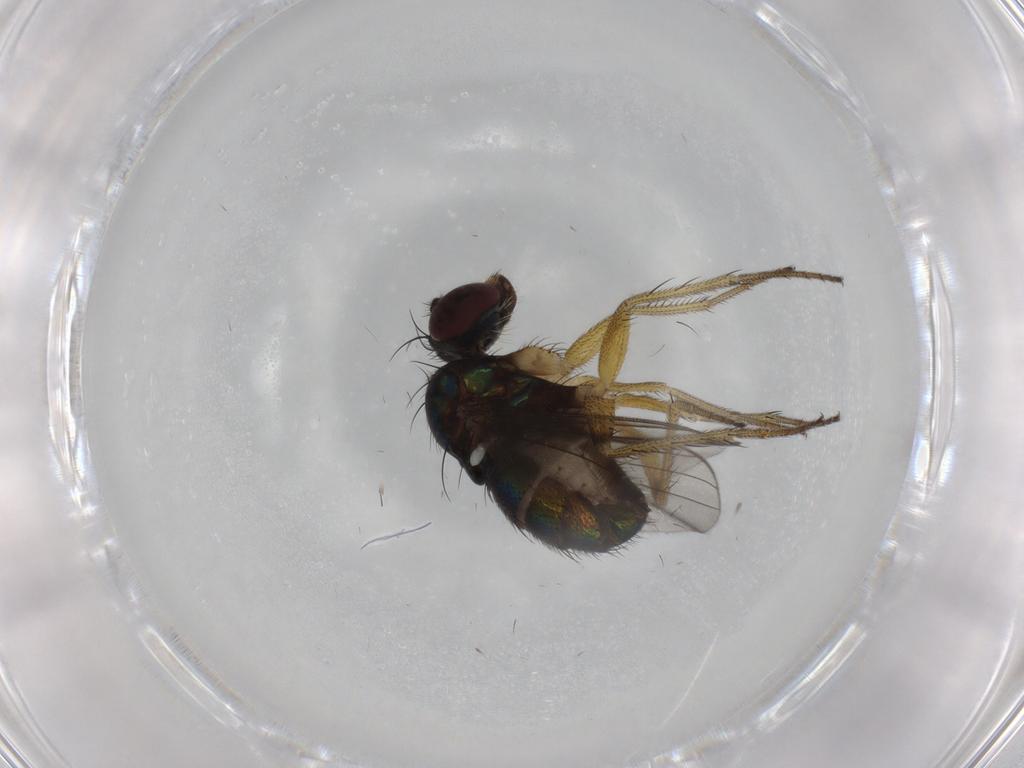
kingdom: Animalia
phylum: Arthropoda
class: Insecta
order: Diptera
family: Dolichopodidae
